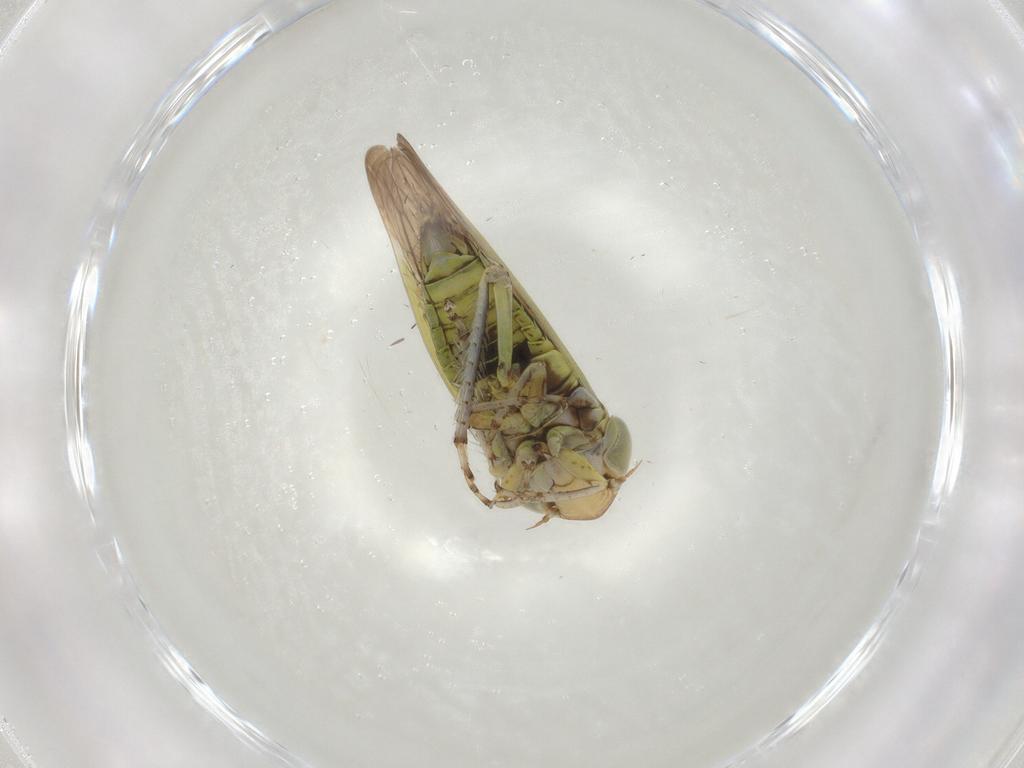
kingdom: Animalia
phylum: Arthropoda
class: Insecta
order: Hemiptera
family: Cicadellidae
